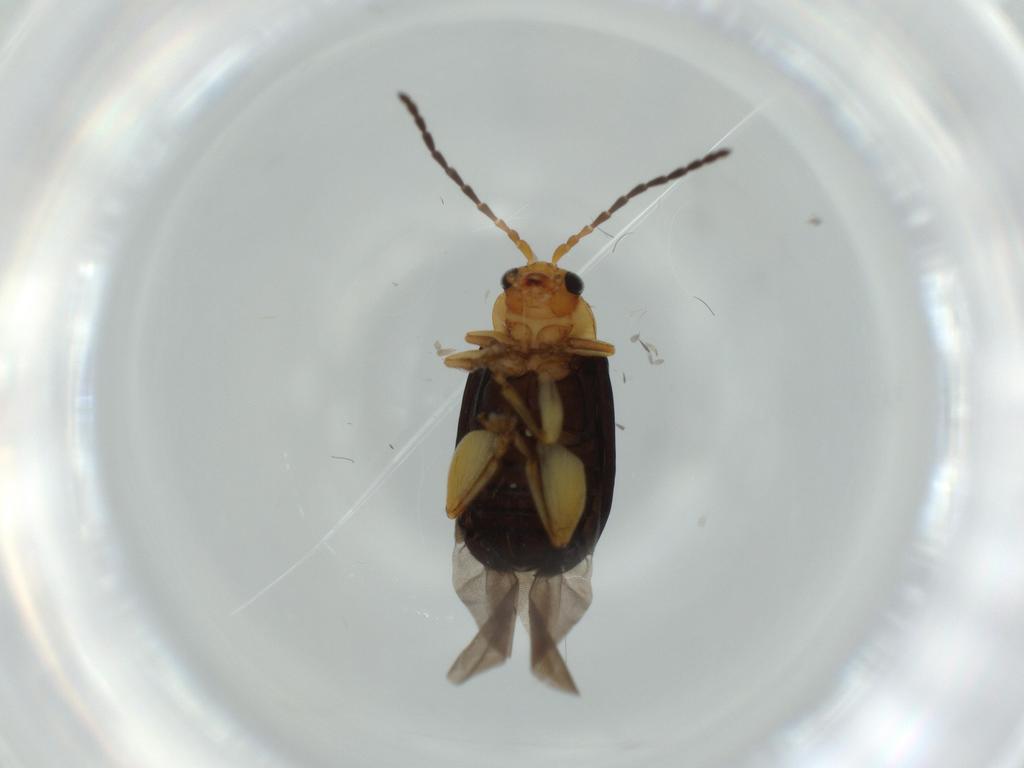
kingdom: Animalia
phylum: Arthropoda
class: Insecta
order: Coleoptera
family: Chrysomelidae
